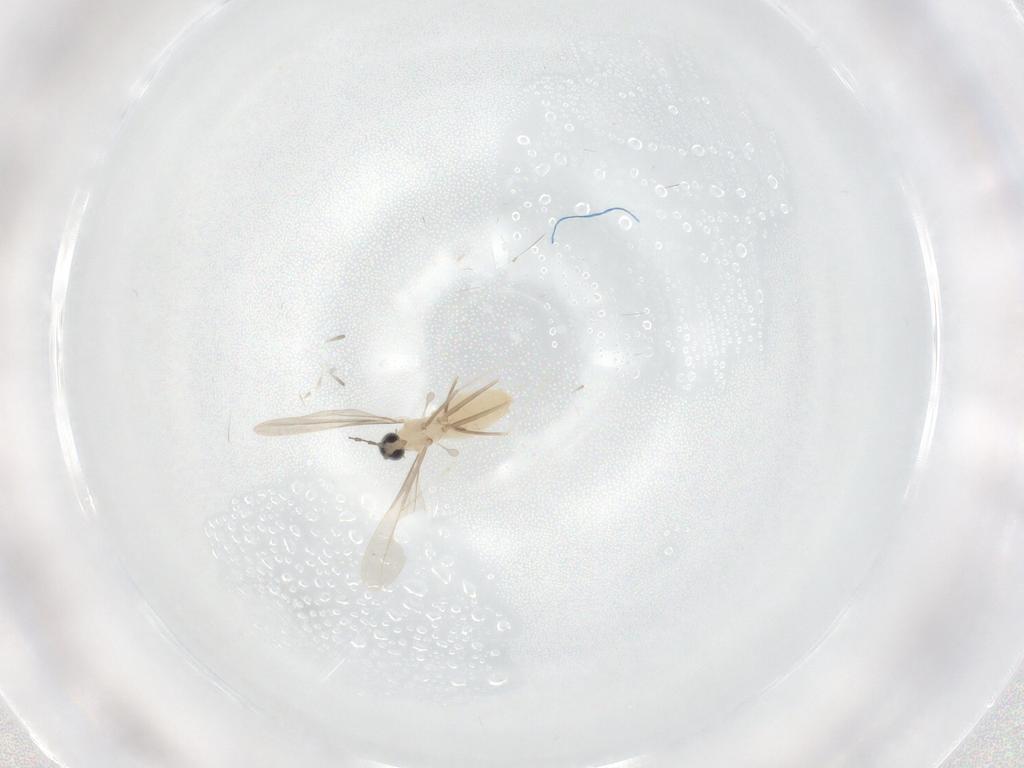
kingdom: Animalia
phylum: Arthropoda
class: Insecta
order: Diptera
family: Cecidomyiidae
